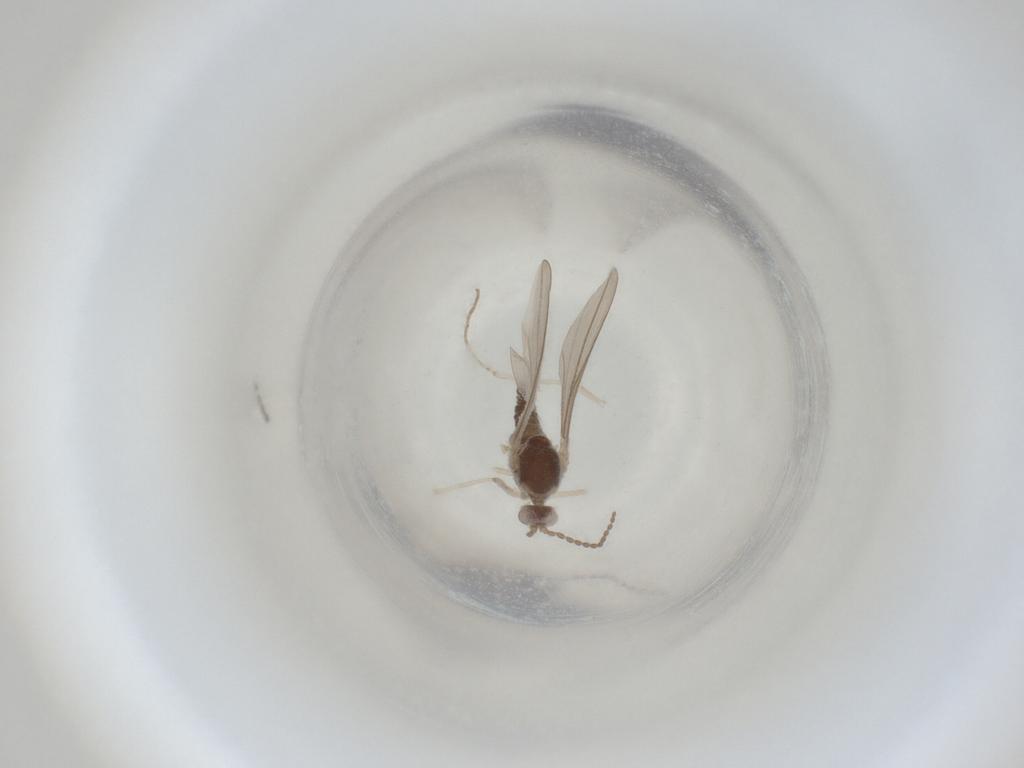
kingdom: Animalia
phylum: Arthropoda
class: Insecta
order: Diptera
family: Cecidomyiidae
